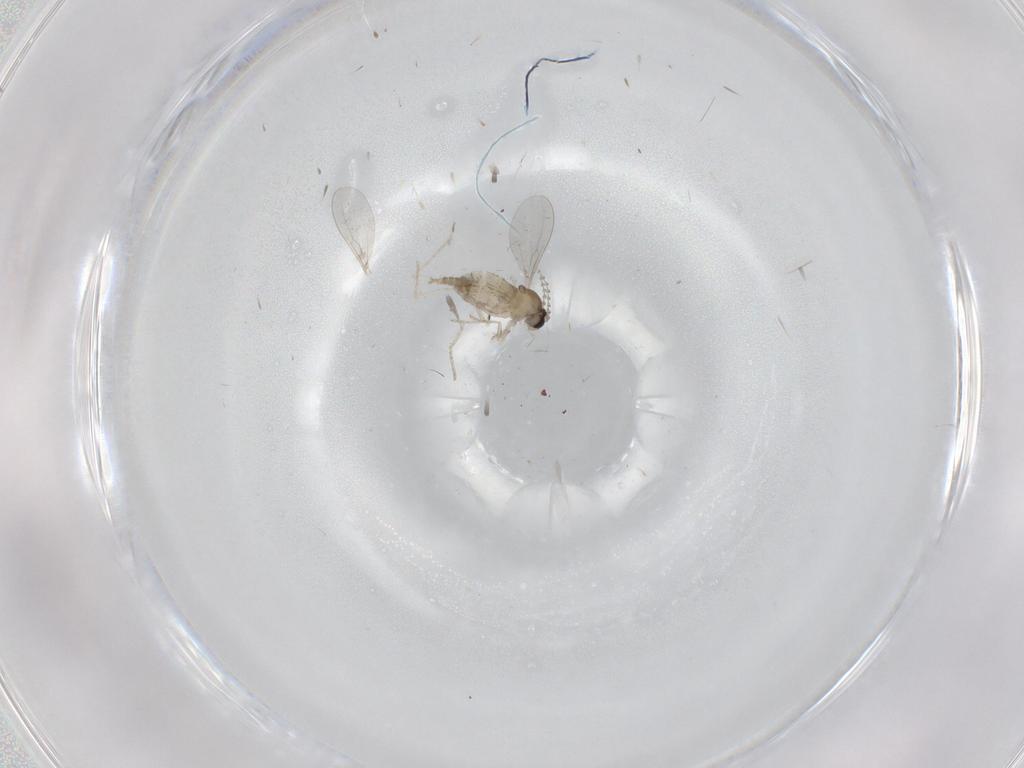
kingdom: Animalia
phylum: Arthropoda
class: Insecta
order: Diptera
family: Cecidomyiidae
